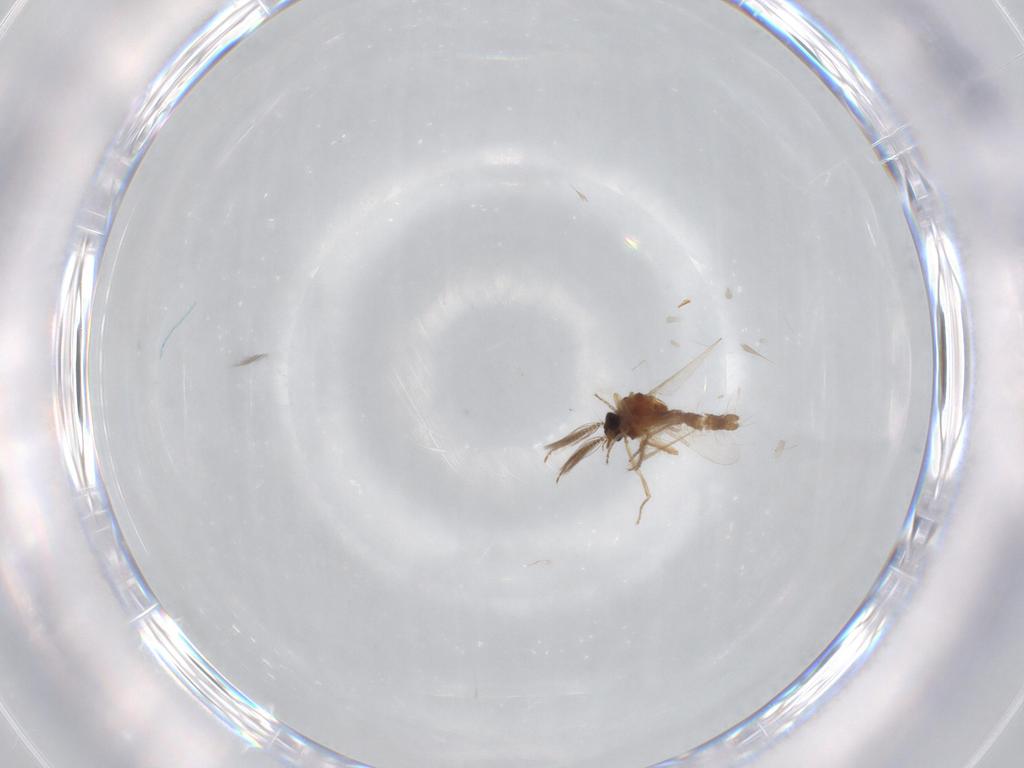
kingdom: Animalia
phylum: Arthropoda
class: Insecta
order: Diptera
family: Ceratopogonidae
